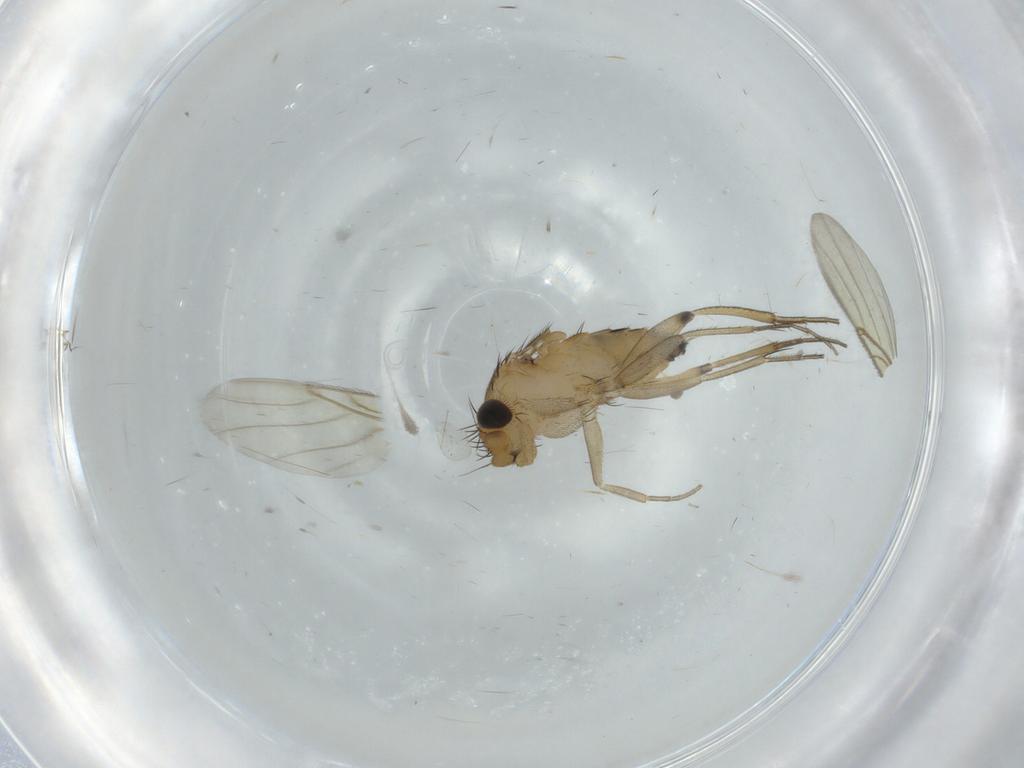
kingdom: Animalia
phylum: Arthropoda
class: Insecta
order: Diptera
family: Phoridae
